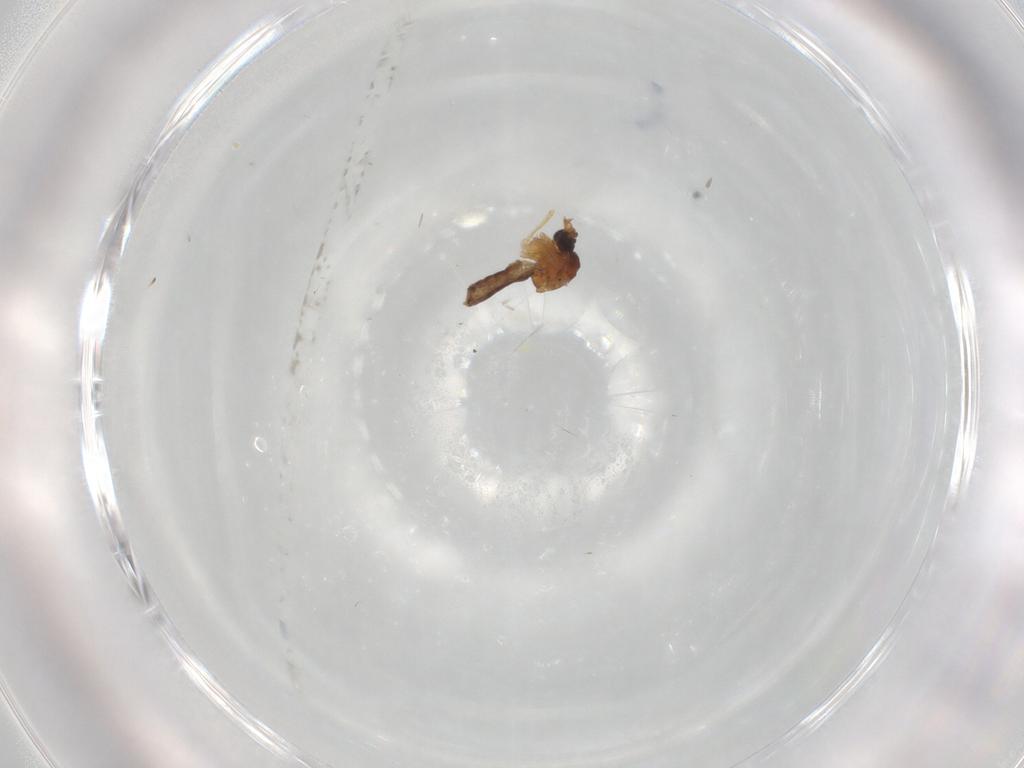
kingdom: Animalia
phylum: Arthropoda
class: Insecta
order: Diptera
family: Ceratopogonidae
